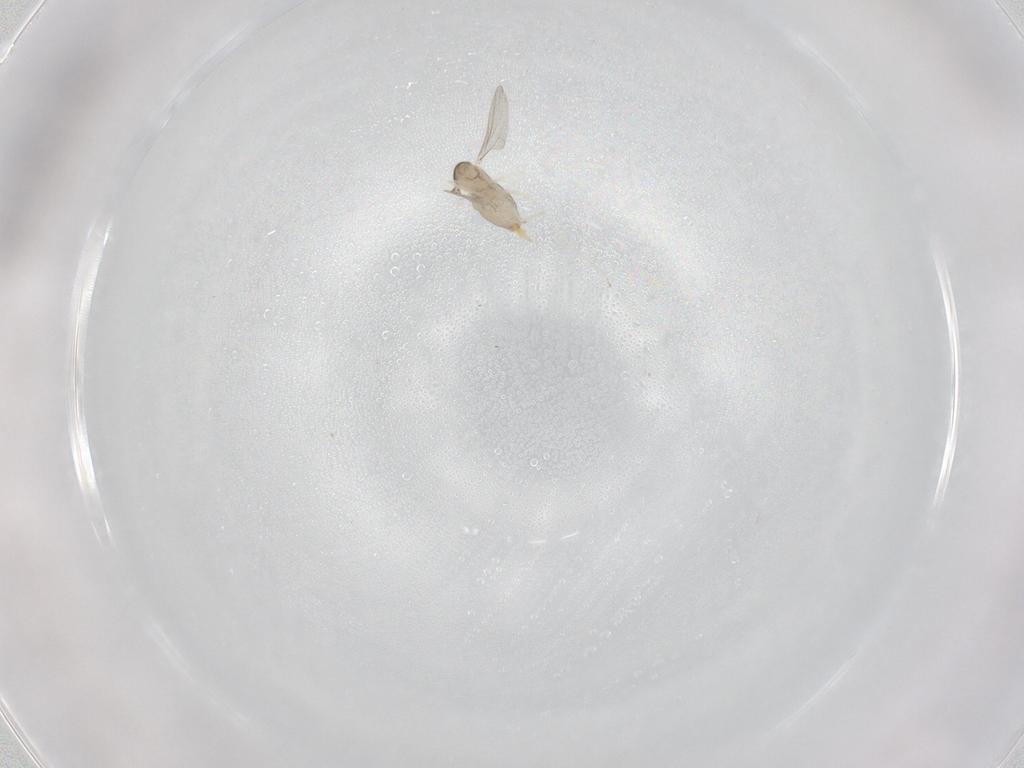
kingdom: Animalia
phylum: Arthropoda
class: Insecta
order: Diptera
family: Cecidomyiidae
